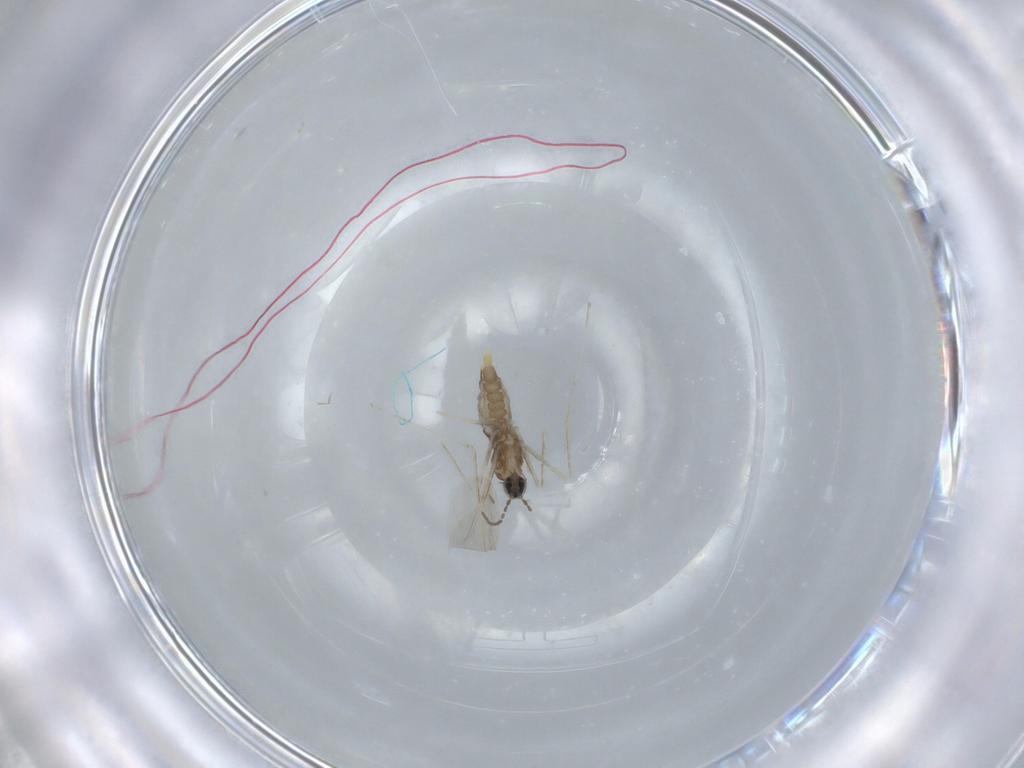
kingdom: Animalia
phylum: Arthropoda
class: Insecta
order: Diptera
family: Cecidomyiidae
